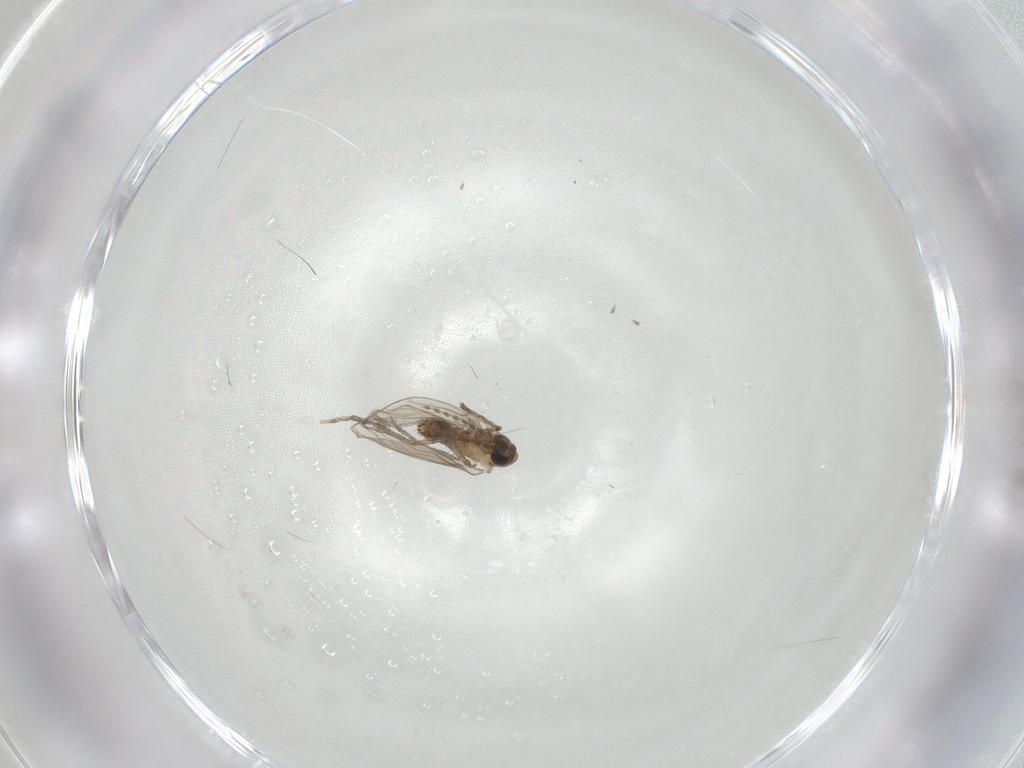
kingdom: Animalia
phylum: Arthropoda
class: Insecta
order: Diptera
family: Psychodidae
